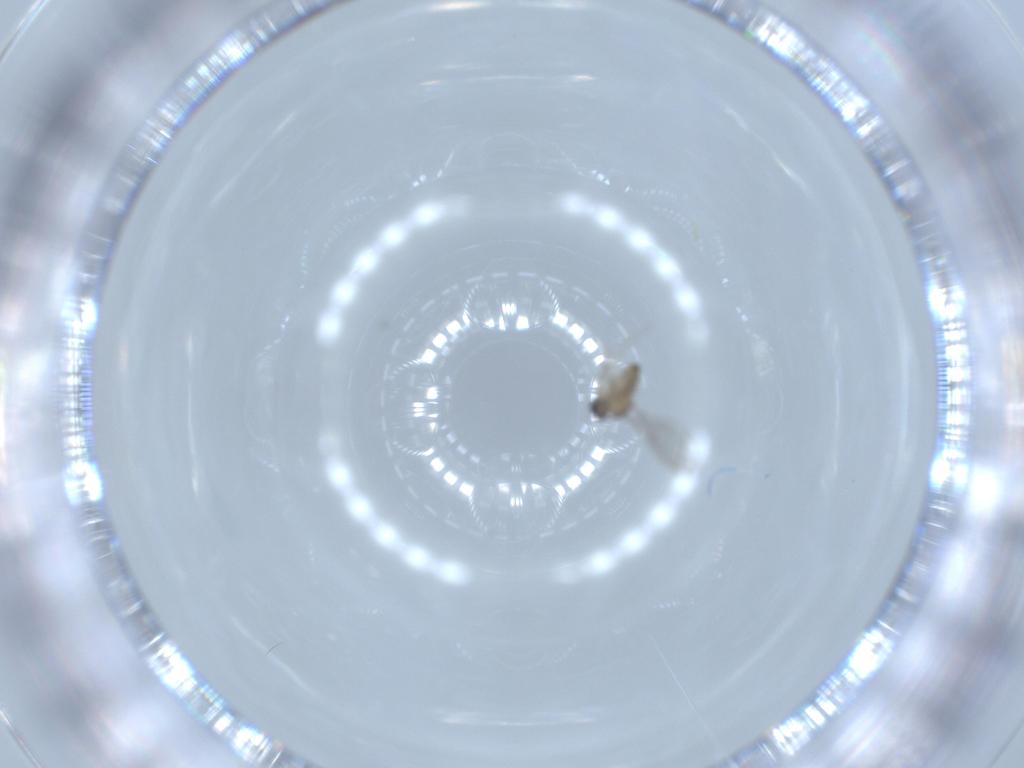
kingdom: Animalia
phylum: Arthropoda
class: Insecta
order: Diptera
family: Cecidomyiidae
